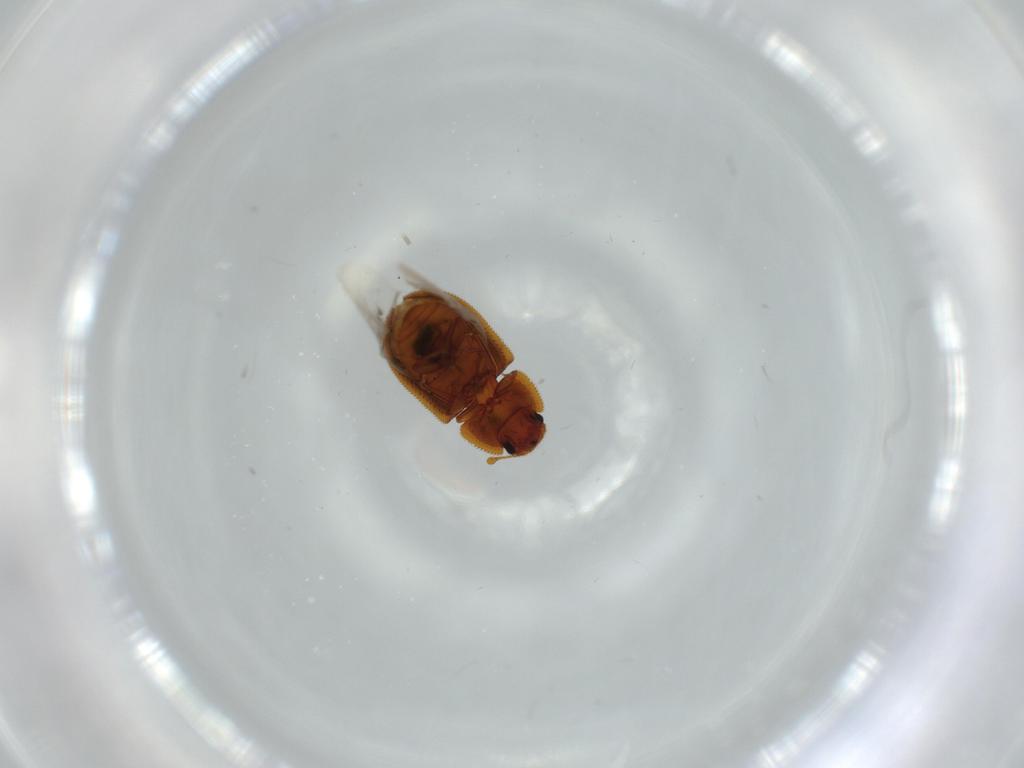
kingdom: Animalia
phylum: Arthropoda
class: Insecta
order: Coleoptera
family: Zopheridae
